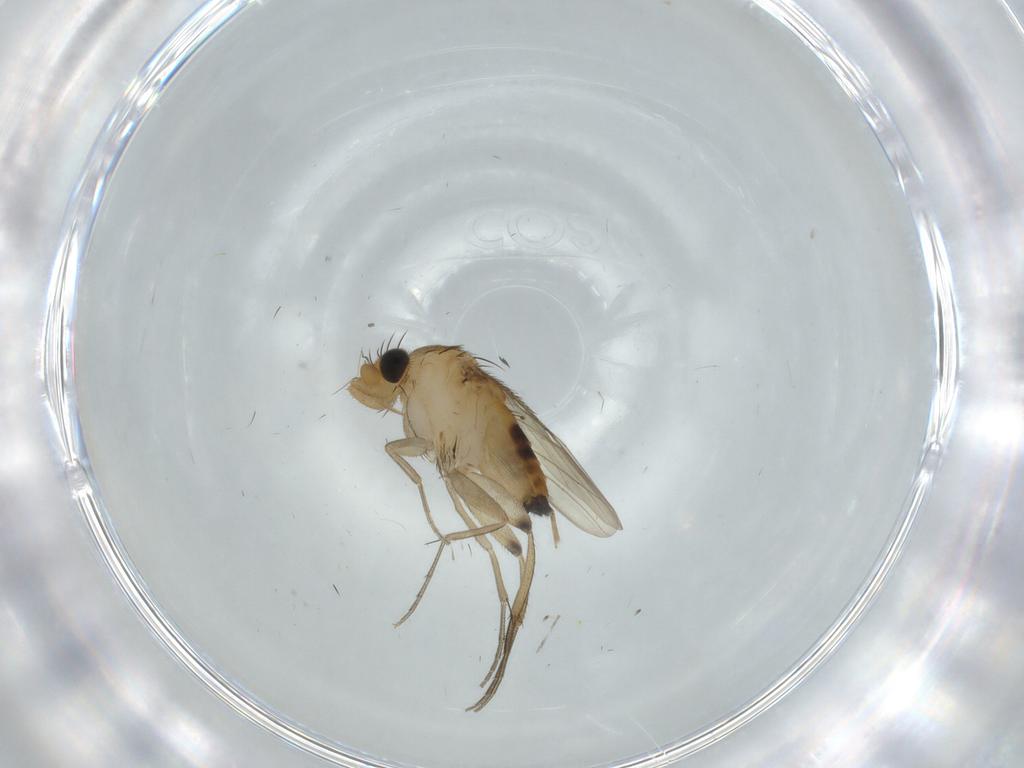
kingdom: Animalia
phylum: Arthropoda
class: Insecta
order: Diptera
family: Phoridae
